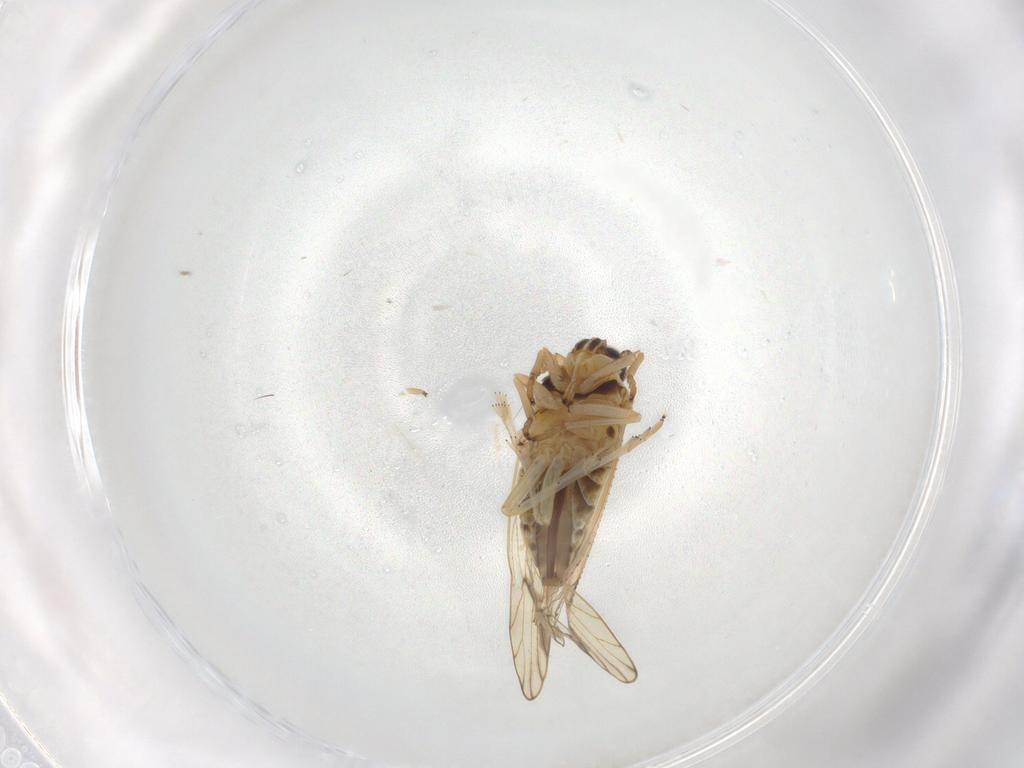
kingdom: Animalia
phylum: Arthropoda
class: Insecta
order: Hemiptera
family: Delphacidae
